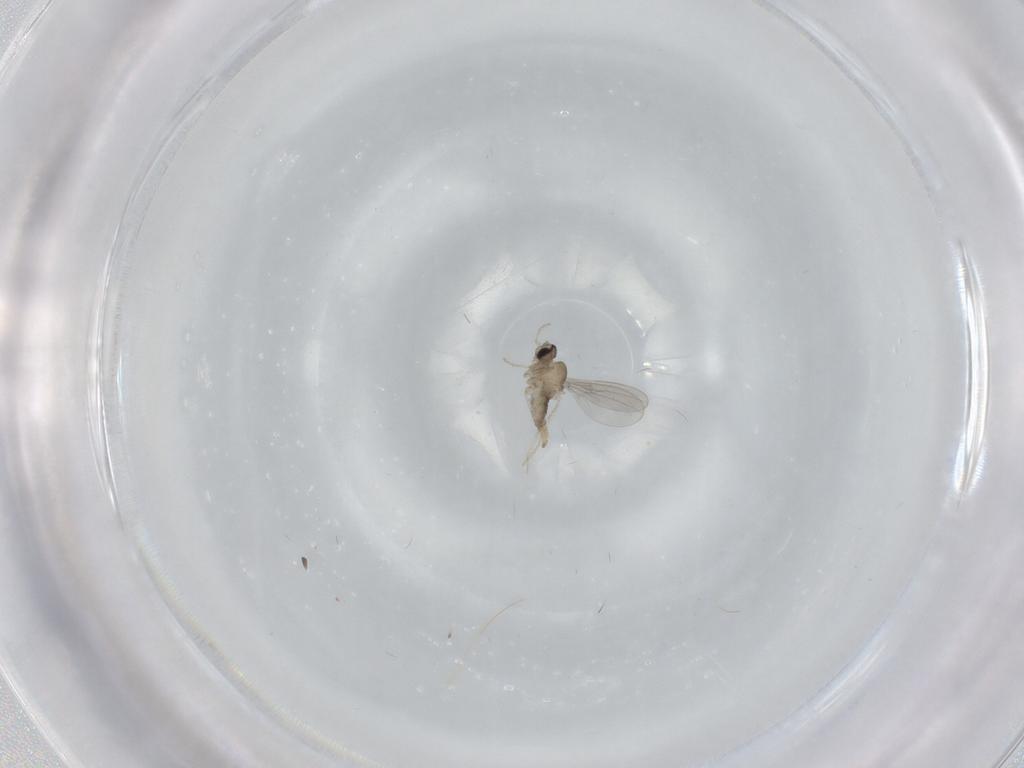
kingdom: Animalia
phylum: Arthropoda
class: Insecta
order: Diptera
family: Cecidomyiidae
